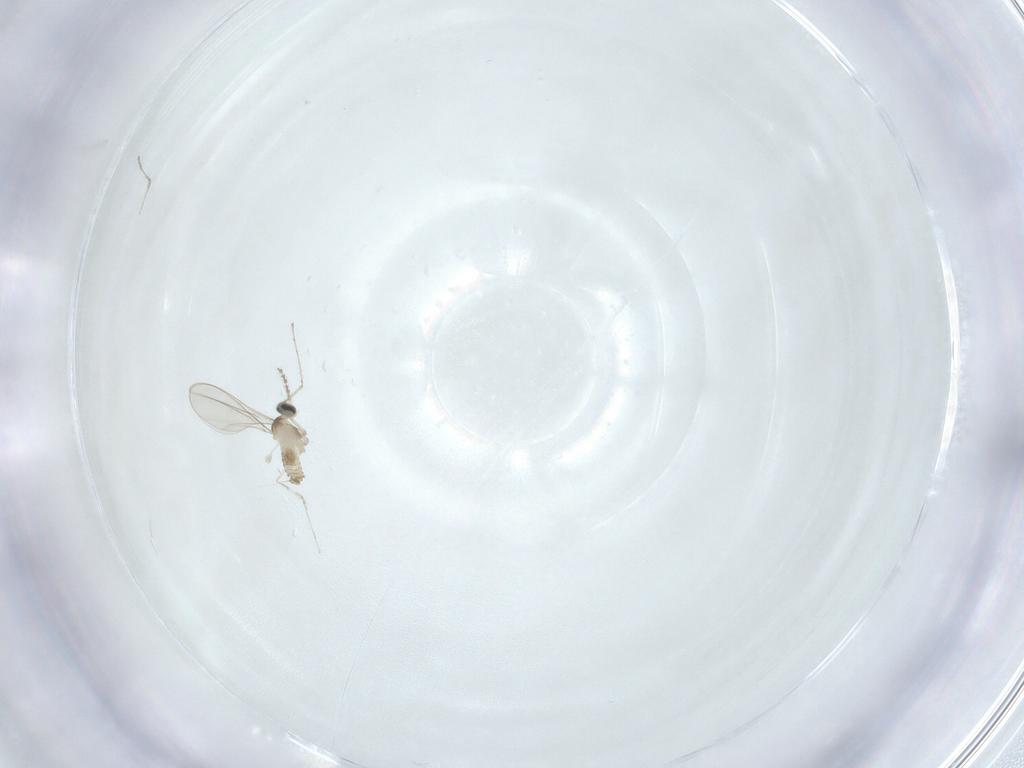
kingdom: Animalia
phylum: Arthropoda
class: Insecta
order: Diptera
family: Cecidomyiidae
